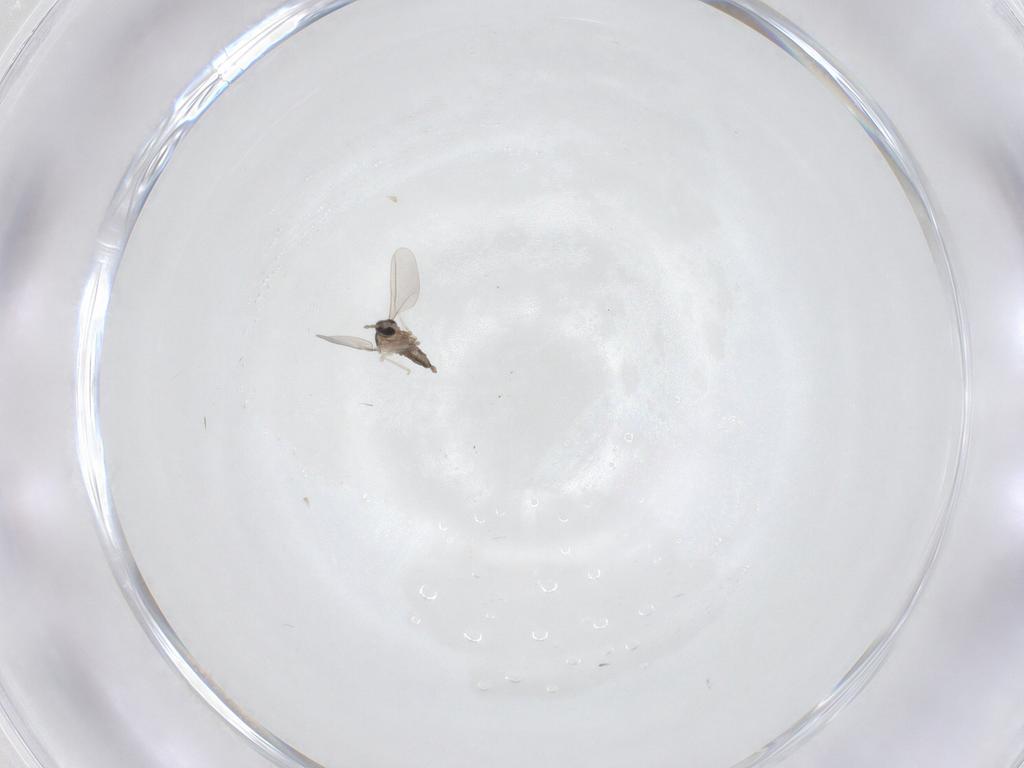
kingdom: Animalia
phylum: Arthropoda
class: Insecta
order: Diptera
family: Cecidomyiidae
